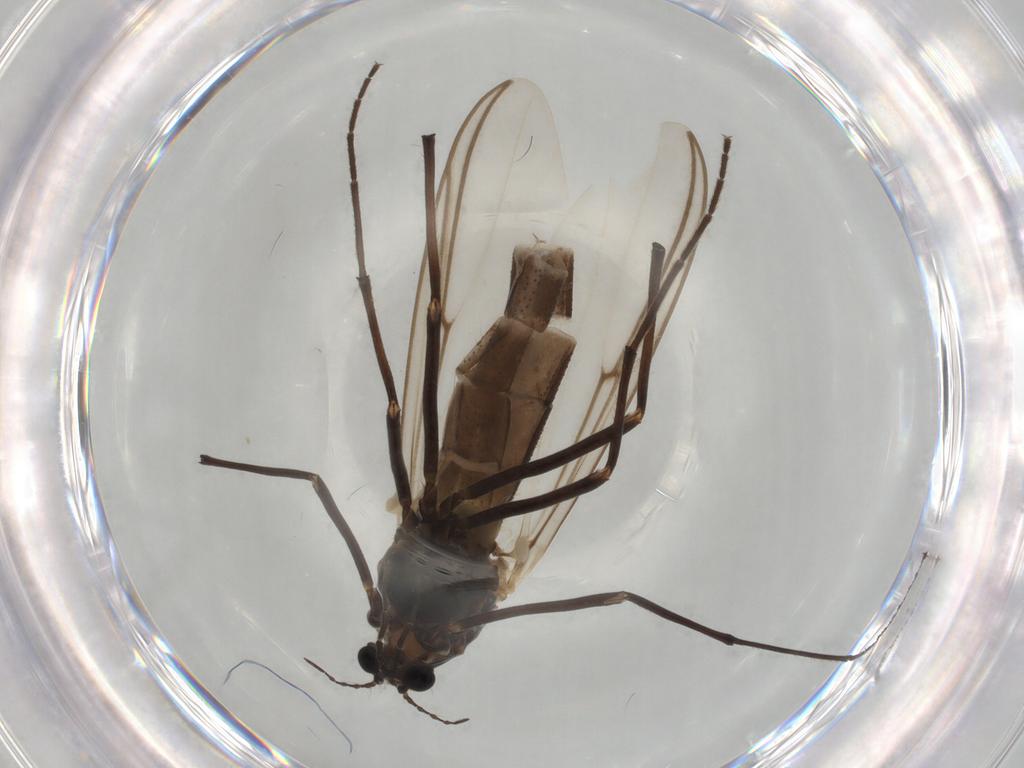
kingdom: Animalia
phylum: Arthropoda
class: Insecta
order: Diptera
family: Chironomidae
